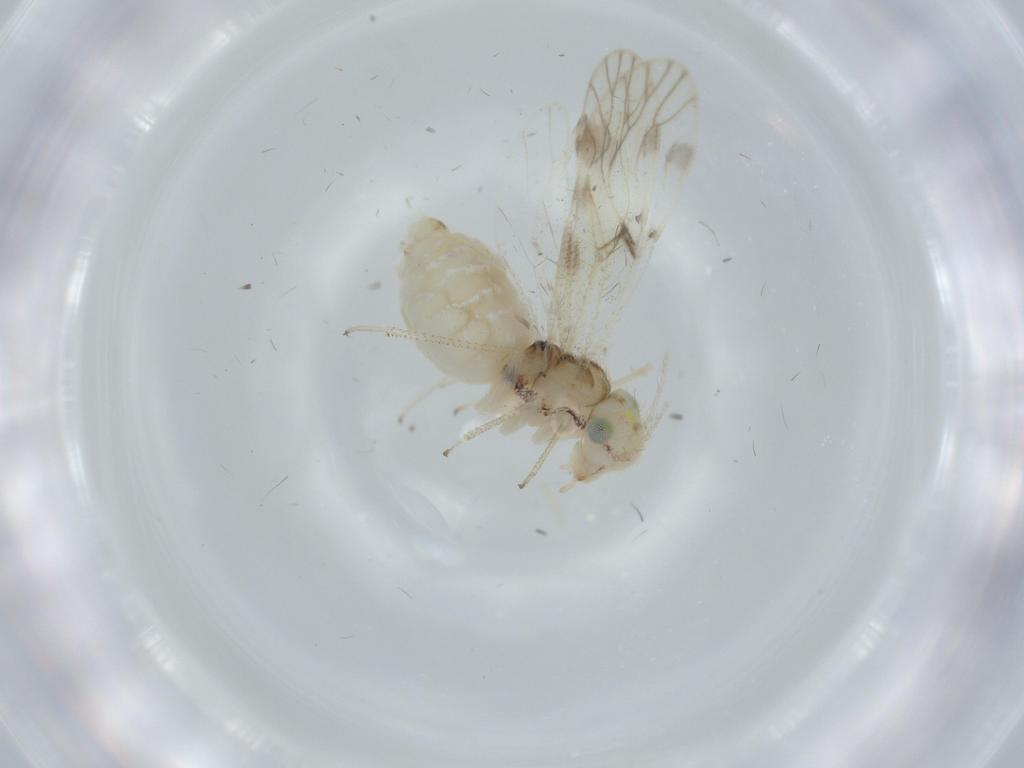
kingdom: Animalia
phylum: Arthropoda
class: Insecta
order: Psocodea
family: Caeciliusidae
